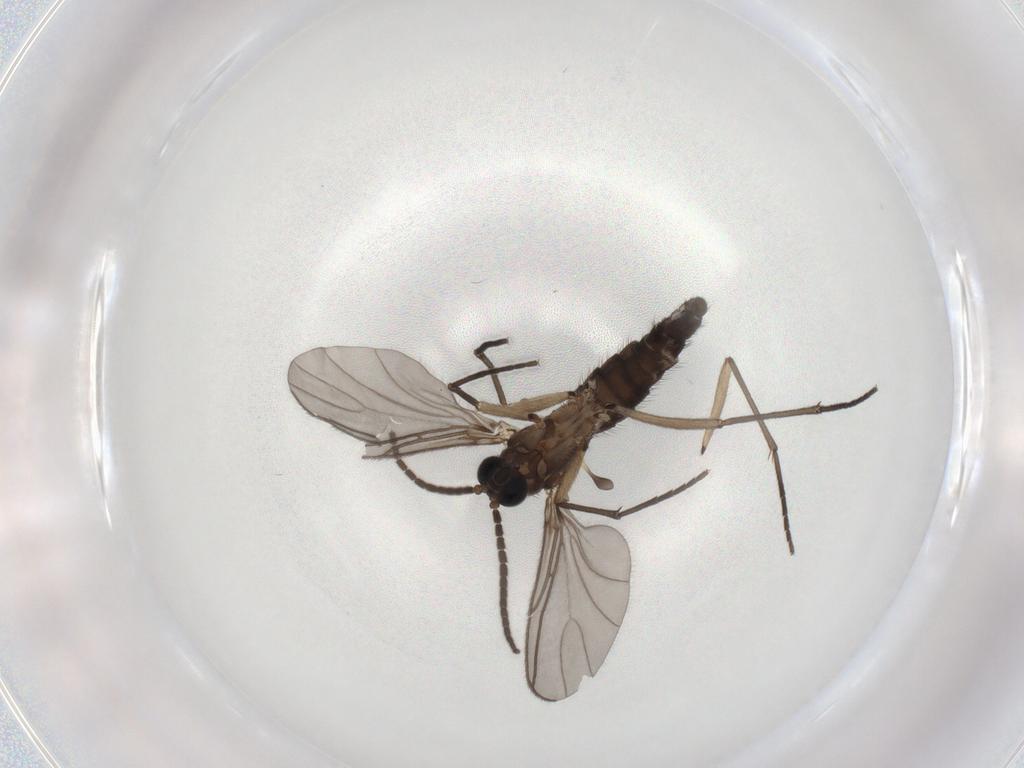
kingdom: Animalia
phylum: Arthropoda
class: Insecta
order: Diptera
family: Sciaridae
